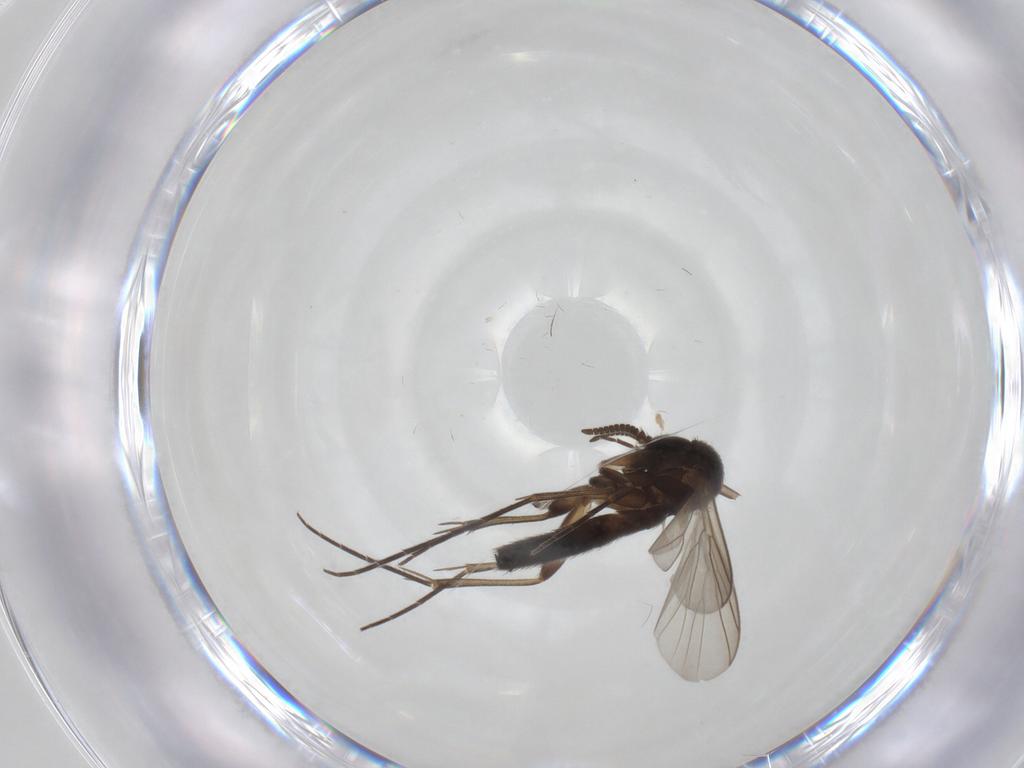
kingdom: Animalia
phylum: Arthropoda
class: Insecta
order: Diptera
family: Mycetophilidae
